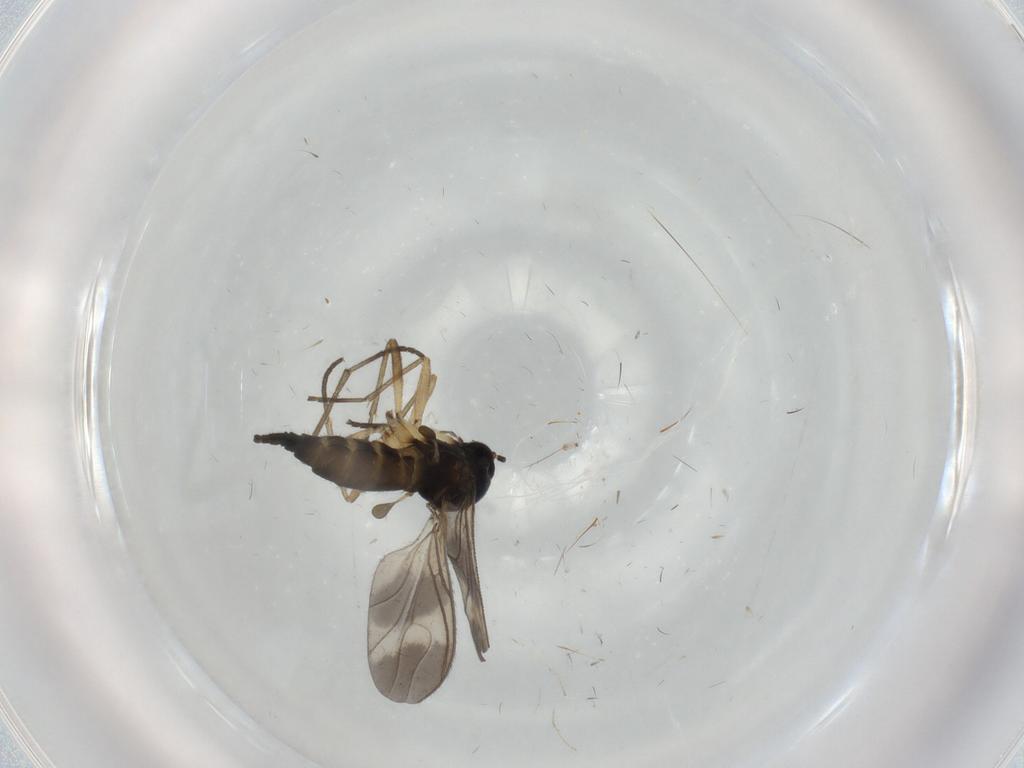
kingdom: Animalia
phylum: Arthropoda
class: Insecta
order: Diptera
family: Sciaridae
